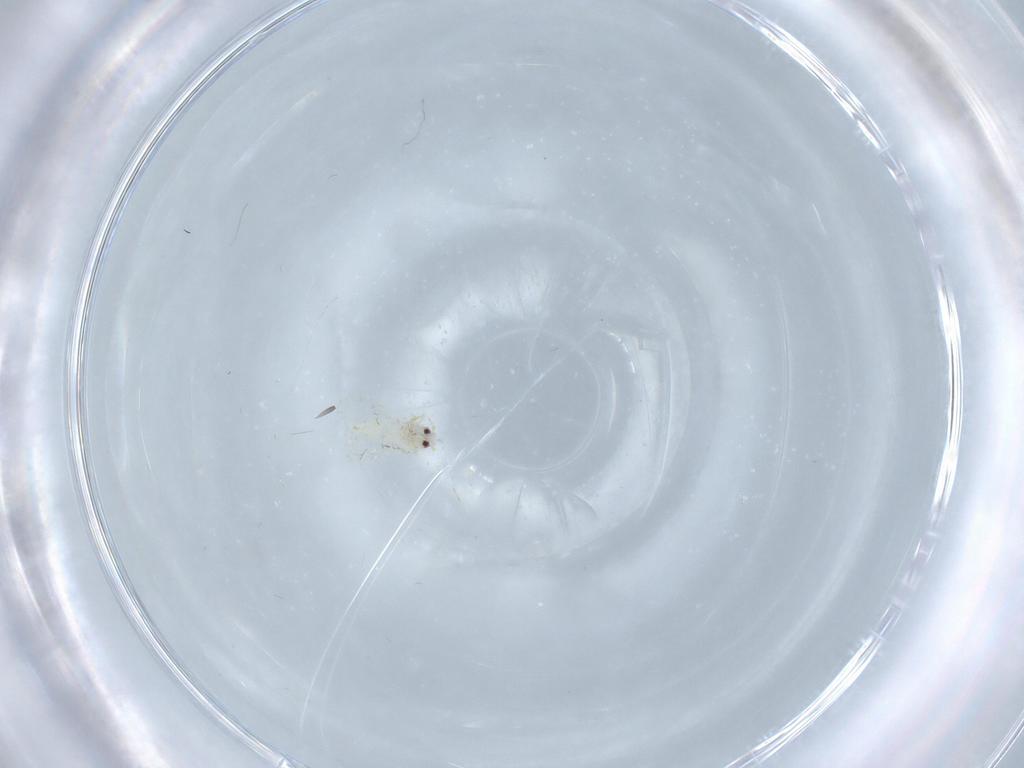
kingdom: Animalia
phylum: Arthropoda
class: Insecta
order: Hemiptera
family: Aleyrodidae
